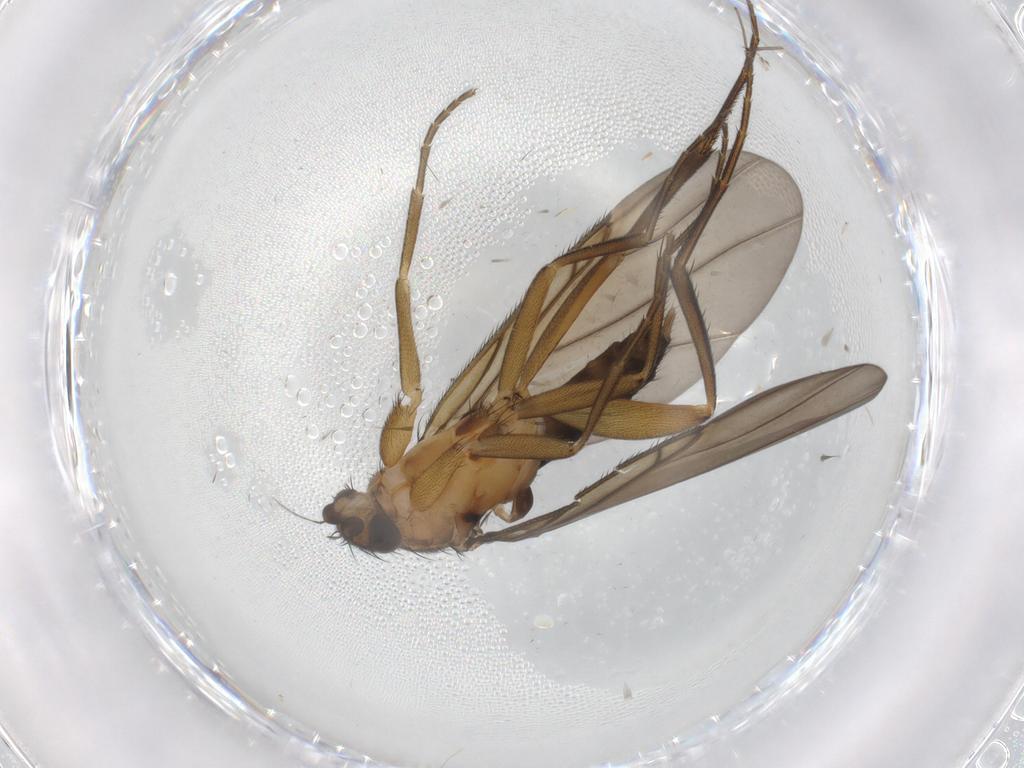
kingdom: Animalia
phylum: Arthropoda
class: Insecta
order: Diptera
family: Phoridae
